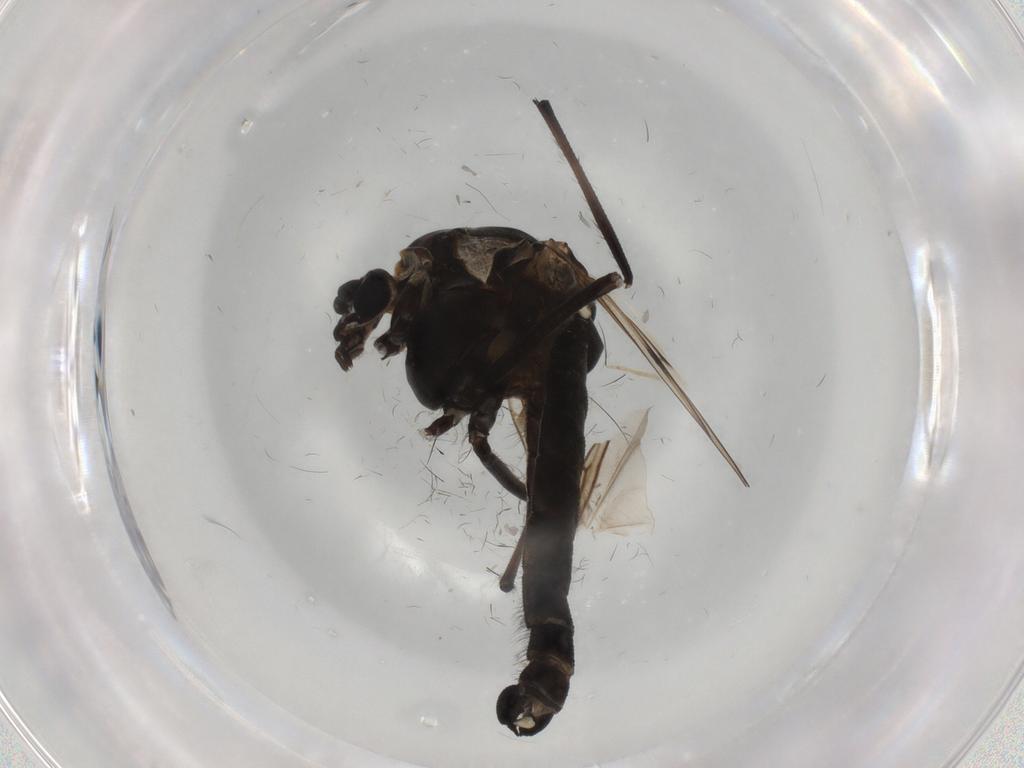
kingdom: Animalia
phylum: Arthropoda
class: Insecta
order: Diptera
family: Chironomidae
